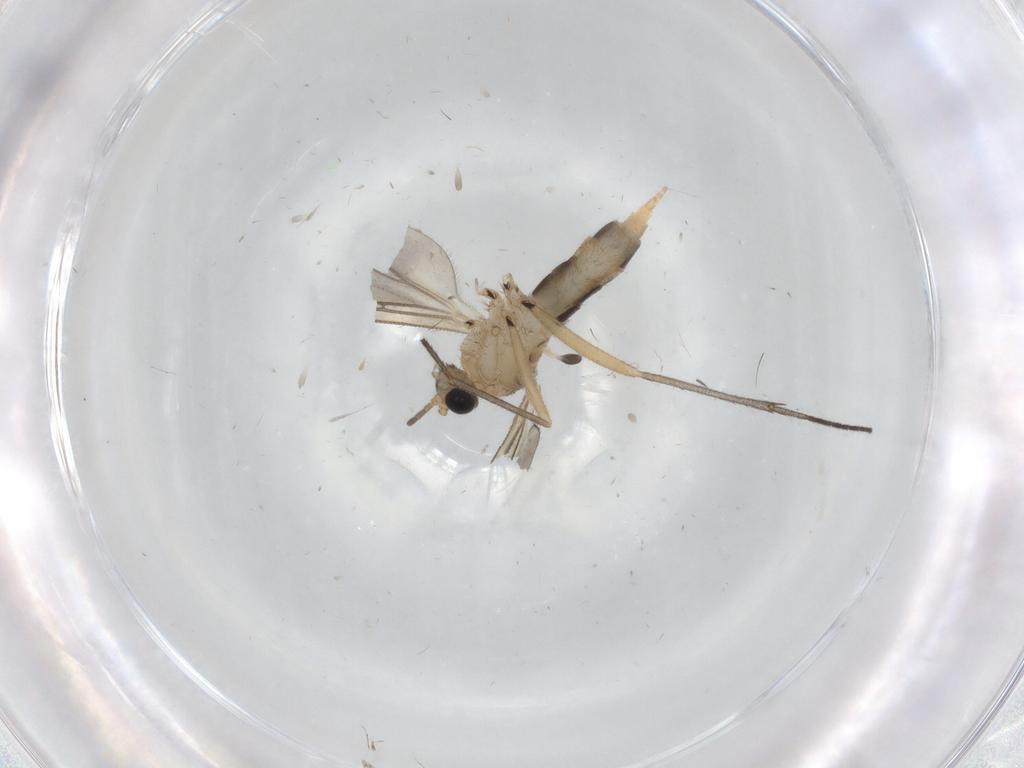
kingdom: Animalia
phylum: Arthropoda
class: Insecta
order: Diptera
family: Sciaridae
